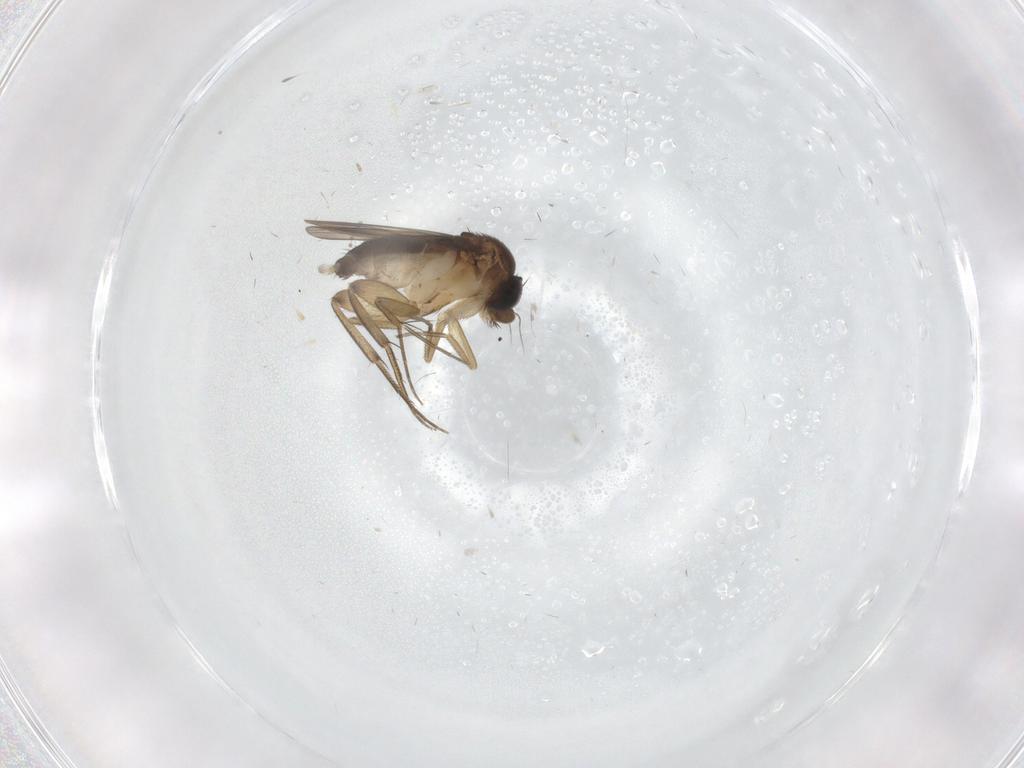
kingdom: Animalia
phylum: Arthropoda
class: Insecta
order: Diptera
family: Phoridae
